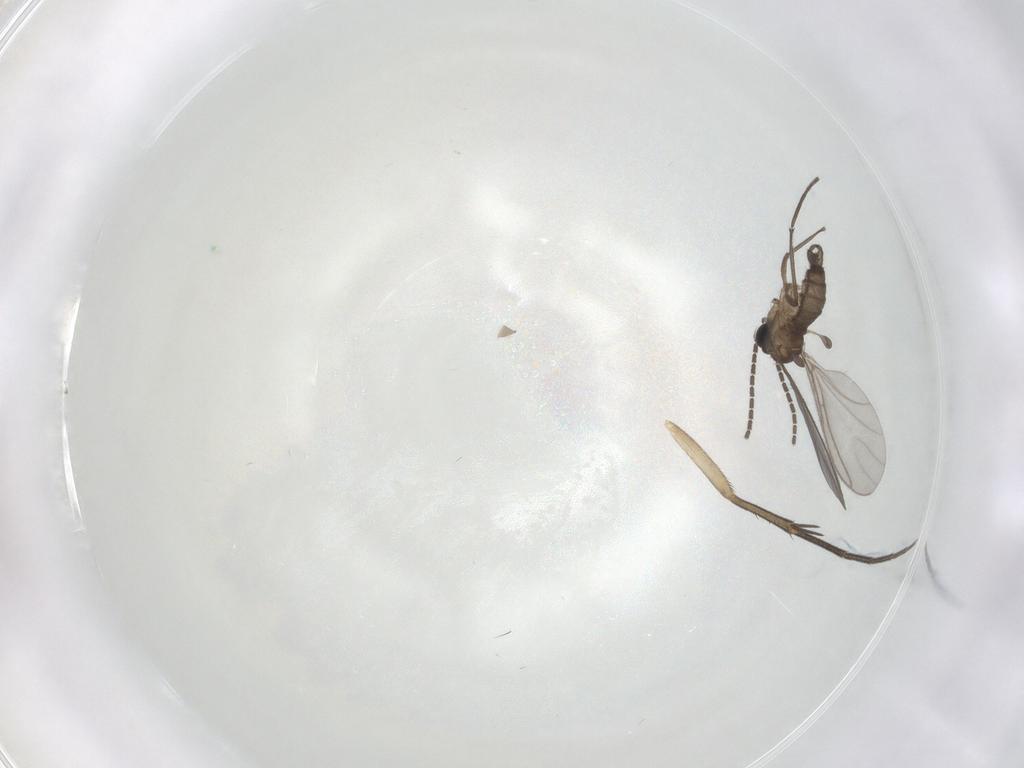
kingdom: Animalia
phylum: Arthropoda
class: Insecta
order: Diptera
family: Sciaridae
